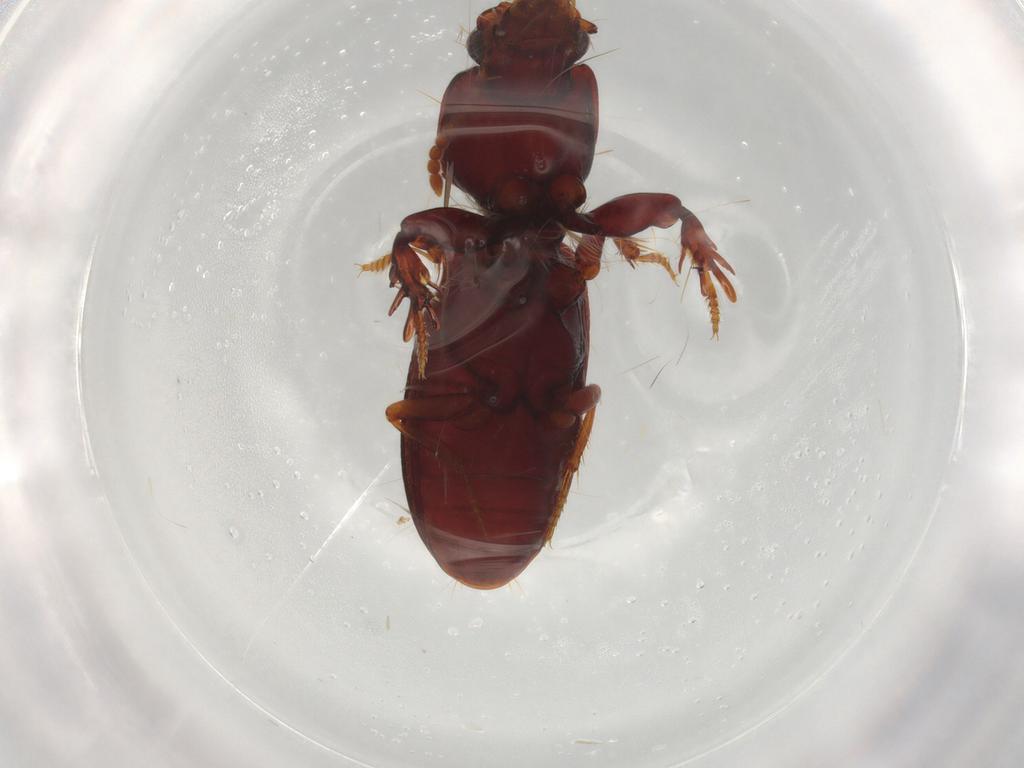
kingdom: Animalia
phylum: Arthropoda
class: Insecta
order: Coleoptera
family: Carabidae
